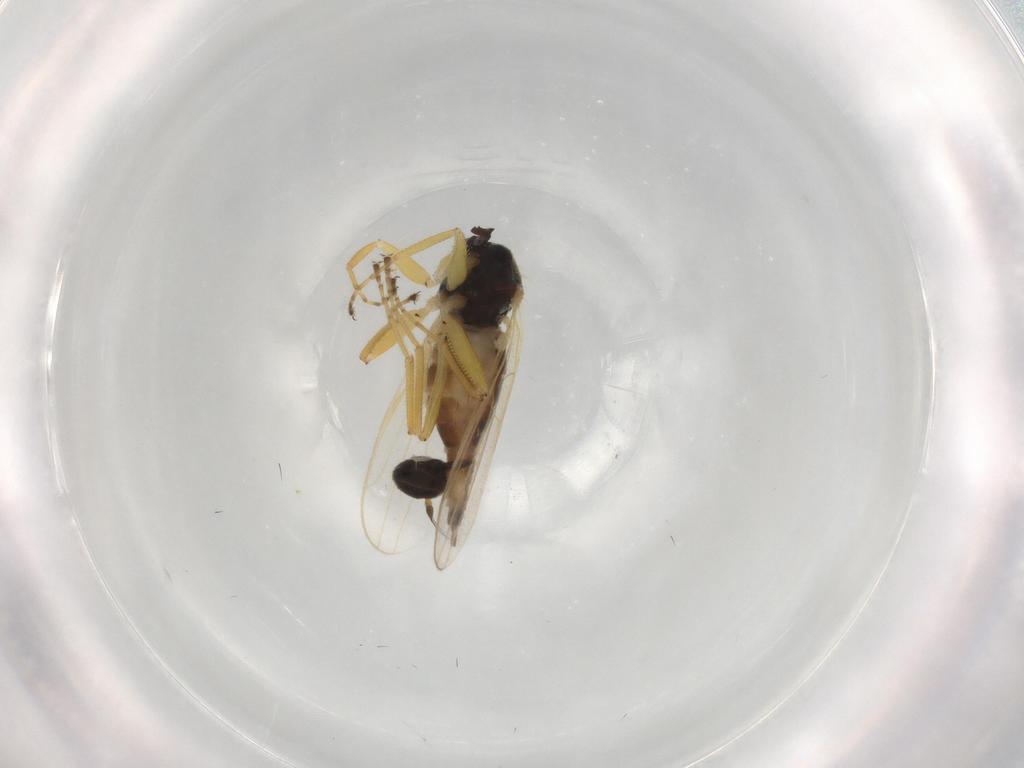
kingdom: Animalia
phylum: Arthropoda
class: Insecta
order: Diptera
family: Hybotidae
